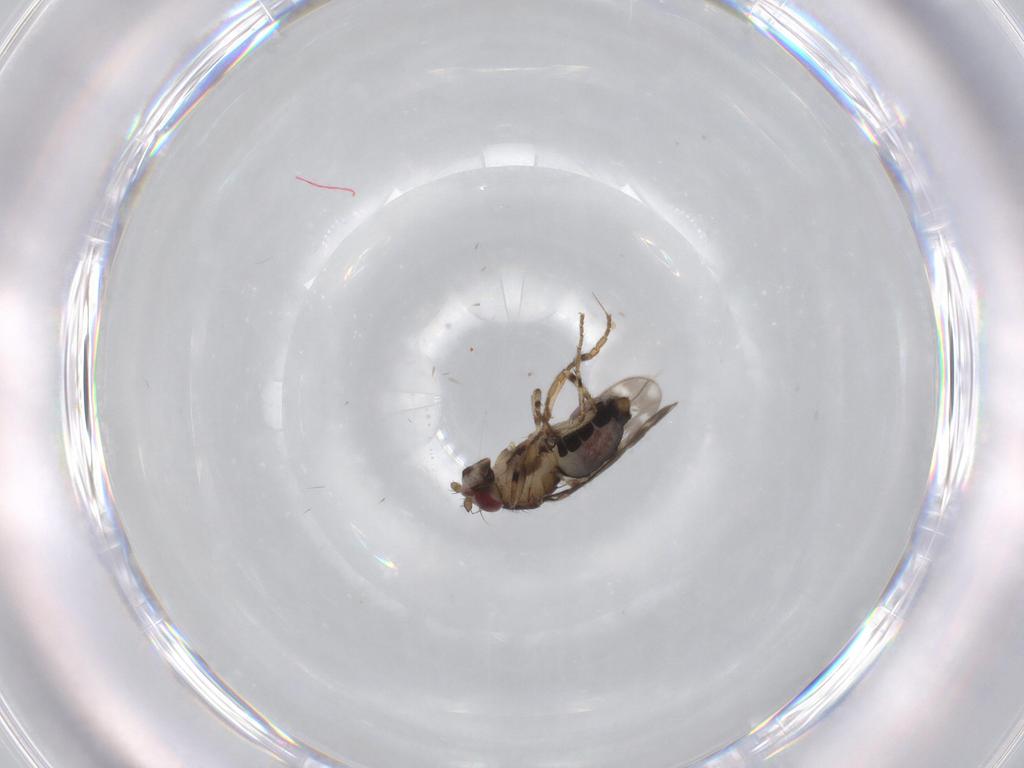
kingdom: Animalia
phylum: Arthropoda
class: Insecta
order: Diptera
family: Sphaeroceridae
